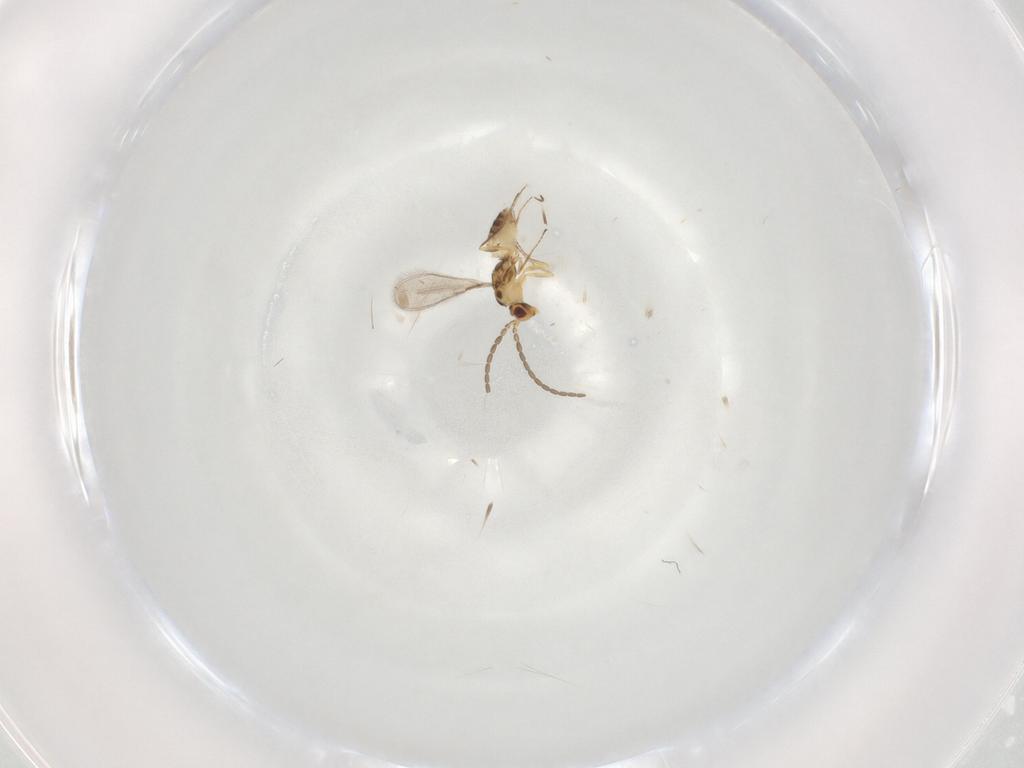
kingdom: Animalia
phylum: Arthropoda
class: Insecta
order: Hymenoptera
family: Mymaridae
